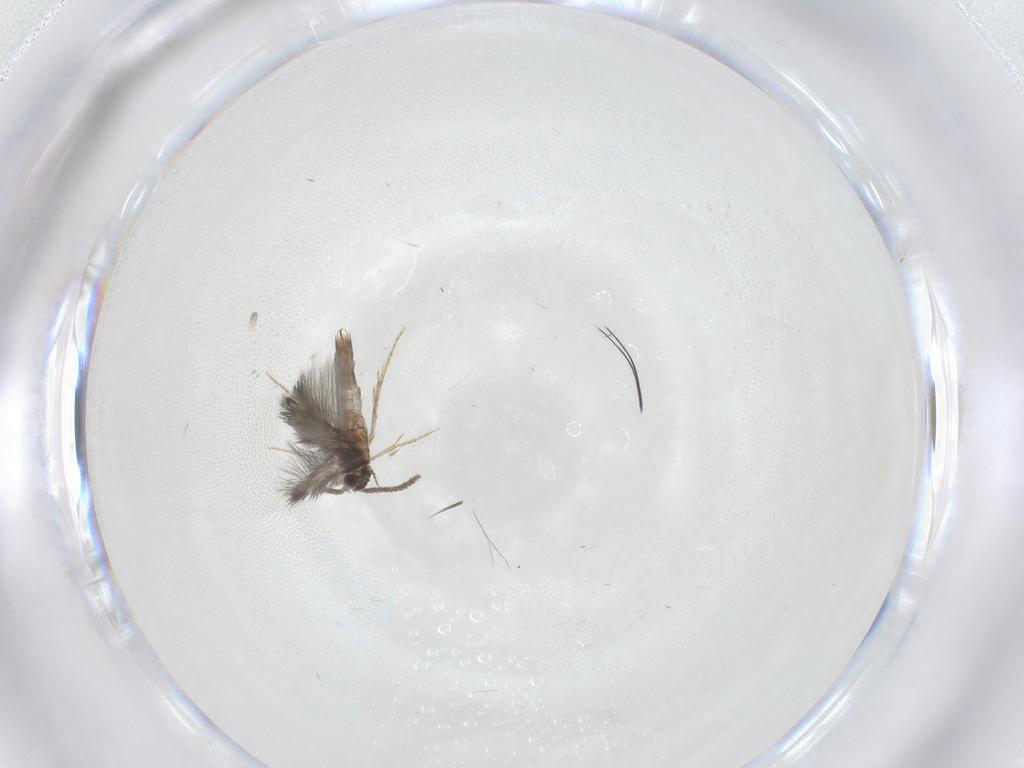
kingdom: Animalia
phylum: Arthropoda
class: Insecta
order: Trichoptera
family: Hydroptilidae
